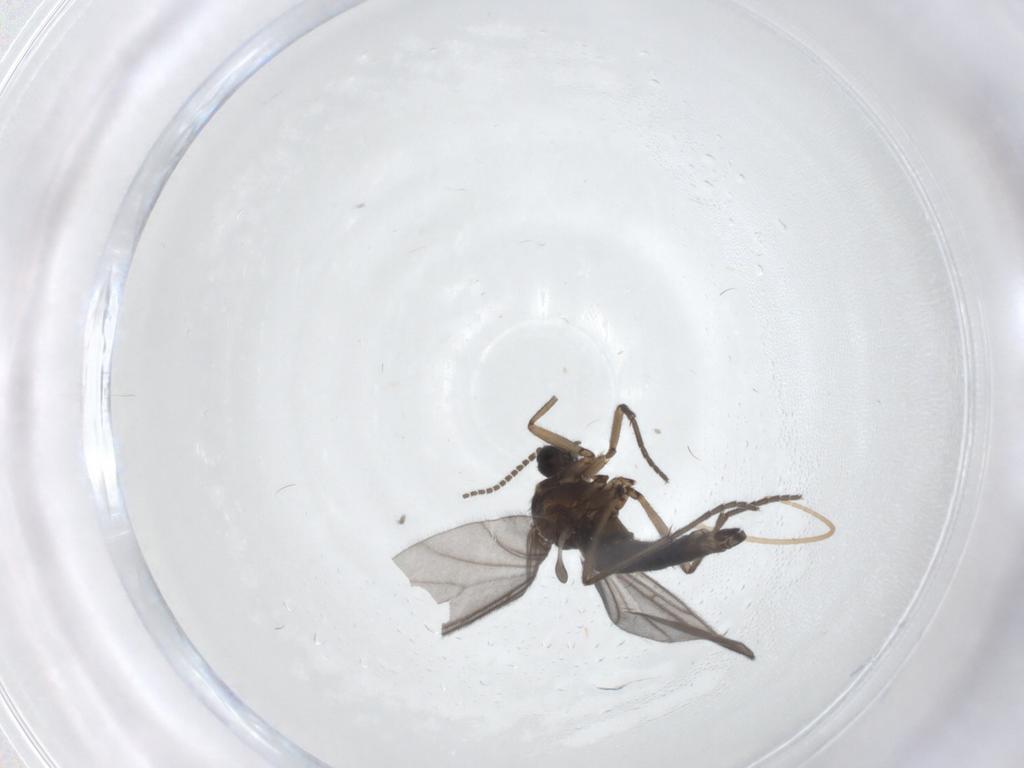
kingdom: Animalia
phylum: Arthropoda
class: Insecta
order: Diptera
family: Sciaridae
